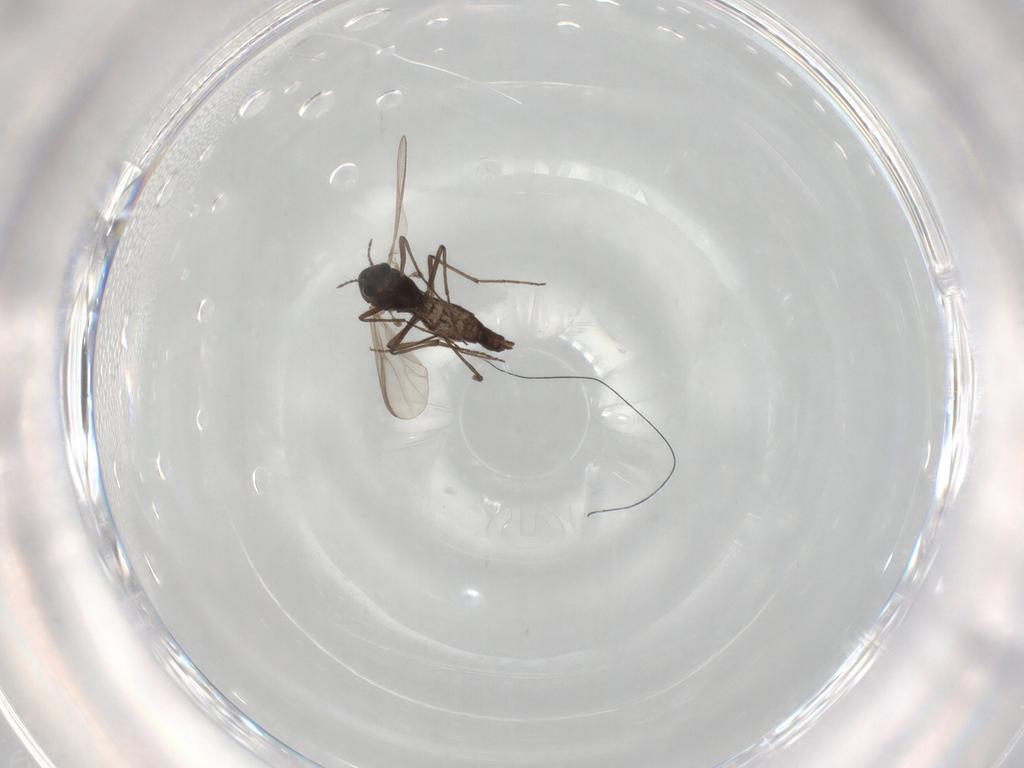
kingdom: Animalia
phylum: Arthropoda
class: Insecta
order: Diptera
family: Chironomidae
